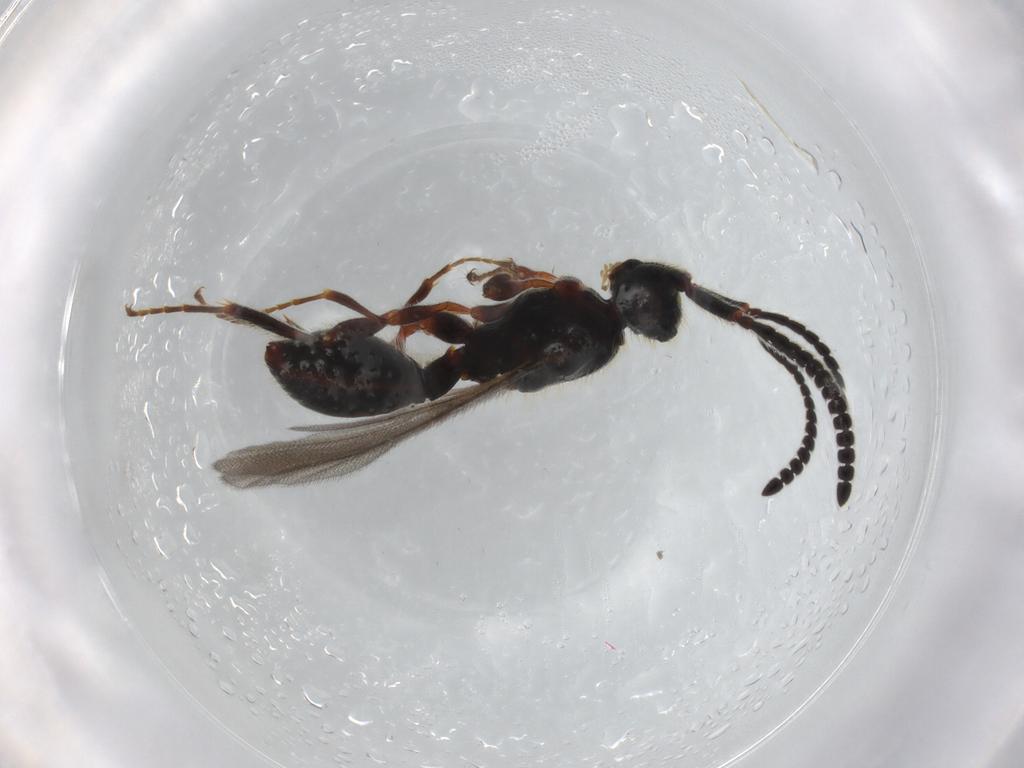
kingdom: Animalia
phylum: Arthropoda
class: Insecta
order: Hymenoptera
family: Diapriidae
